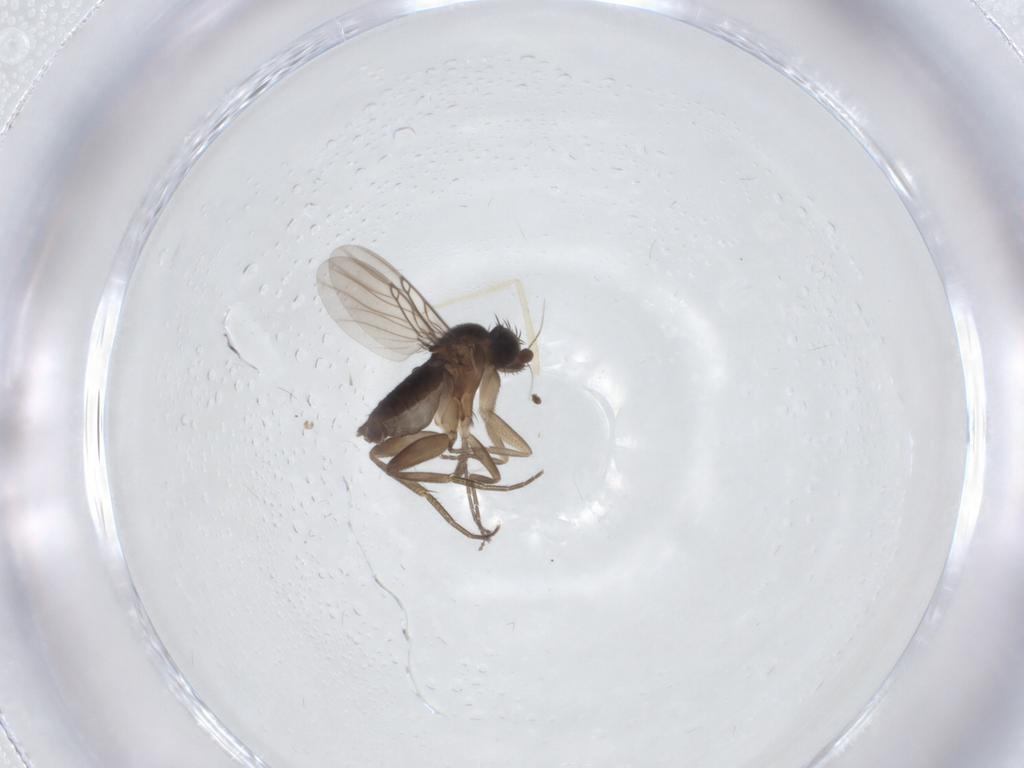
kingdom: Animalia
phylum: Arthropoda
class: Insecta
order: Diptera
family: Phoridae
